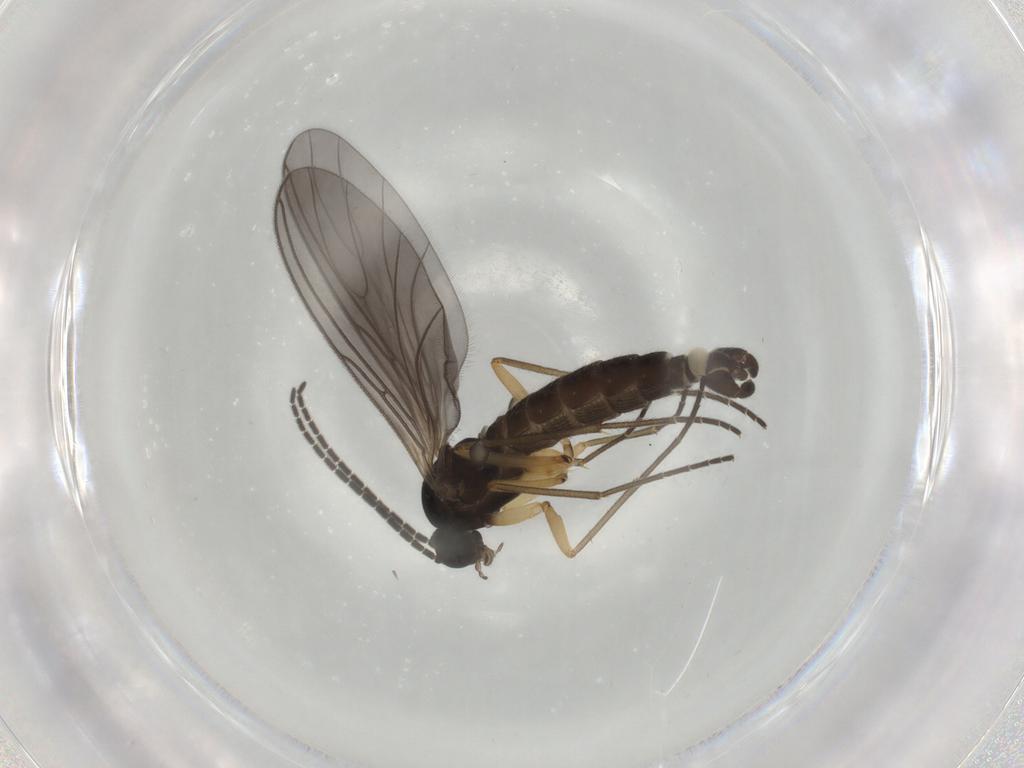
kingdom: Animalia
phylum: Arthropoda
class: Insecta
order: Diptera
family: Sciaridae
